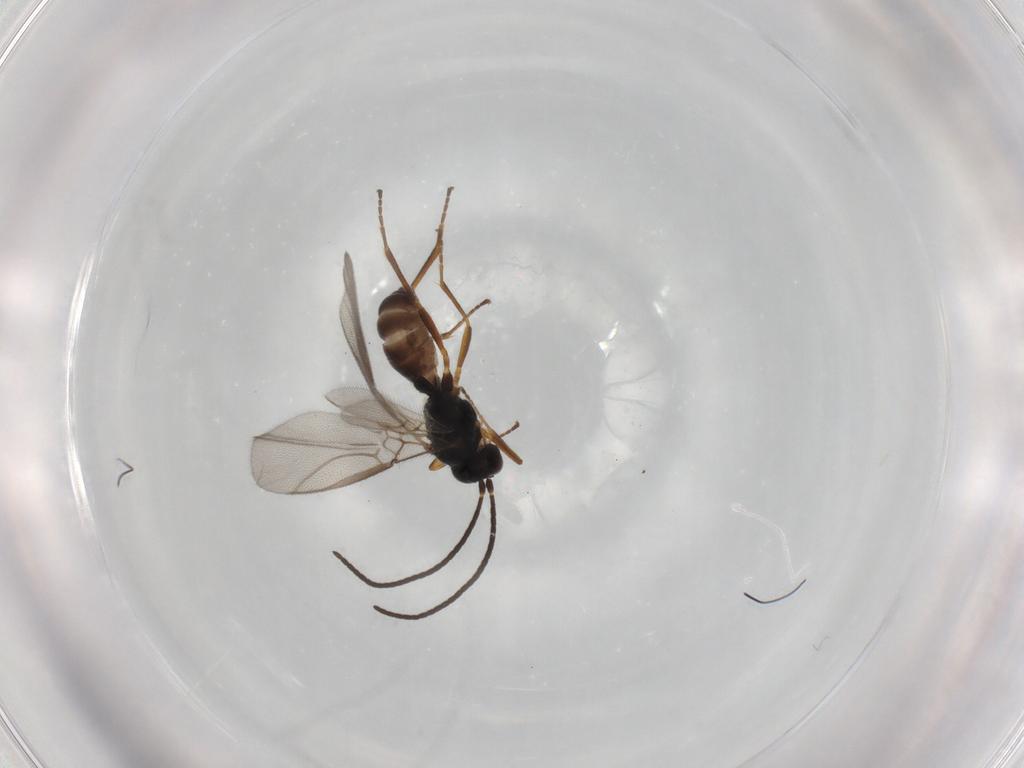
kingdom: Animalia
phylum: Arthropoda
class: Insecta
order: Hymenoptera
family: Braconidae
